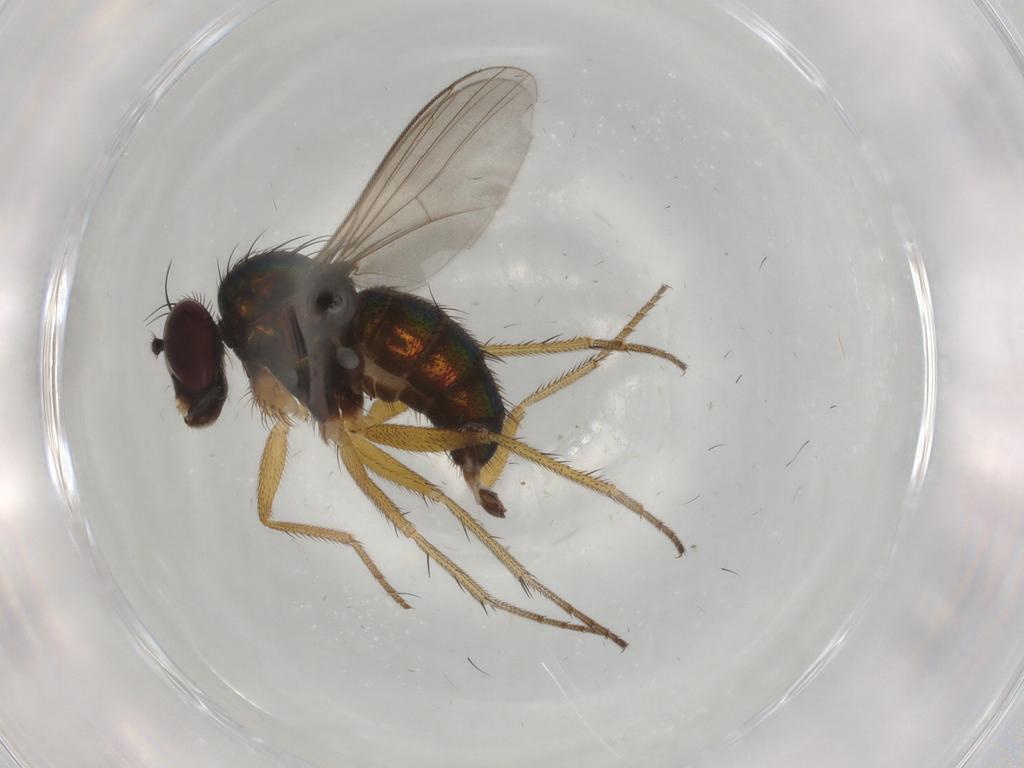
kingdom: Animalia
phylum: Arthropoda
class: Insecta
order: Diptera
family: Dolichopodidae
